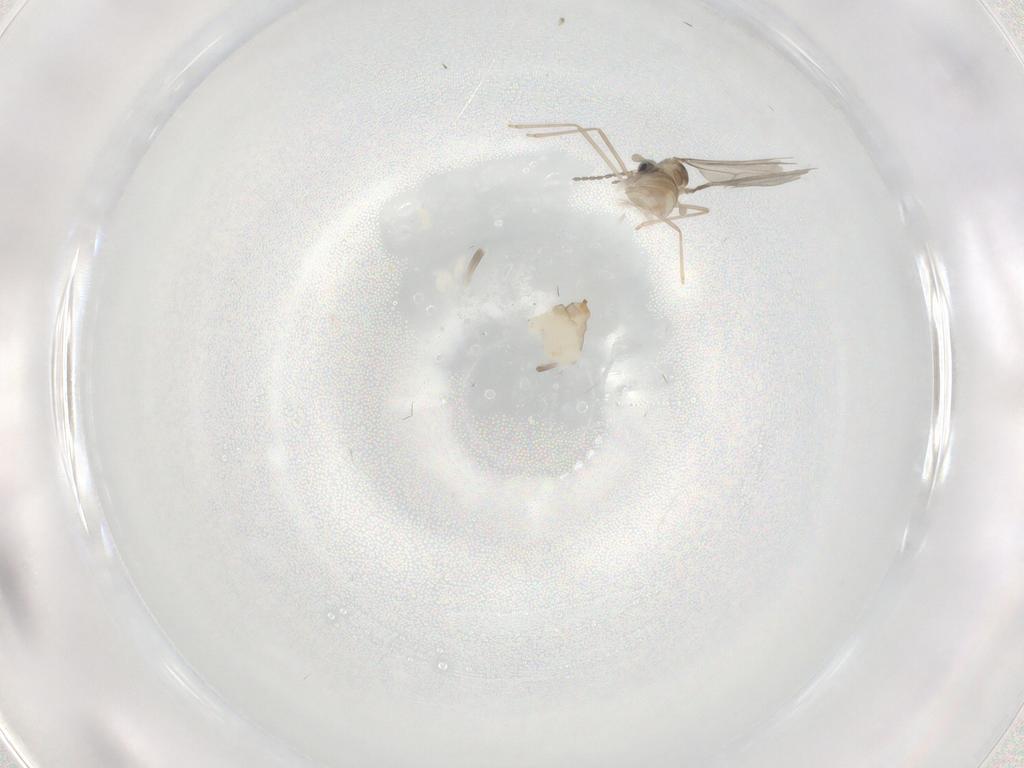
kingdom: Animalia
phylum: Arthropoda
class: Insecta
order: Diptera
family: Cecidomyiidae
